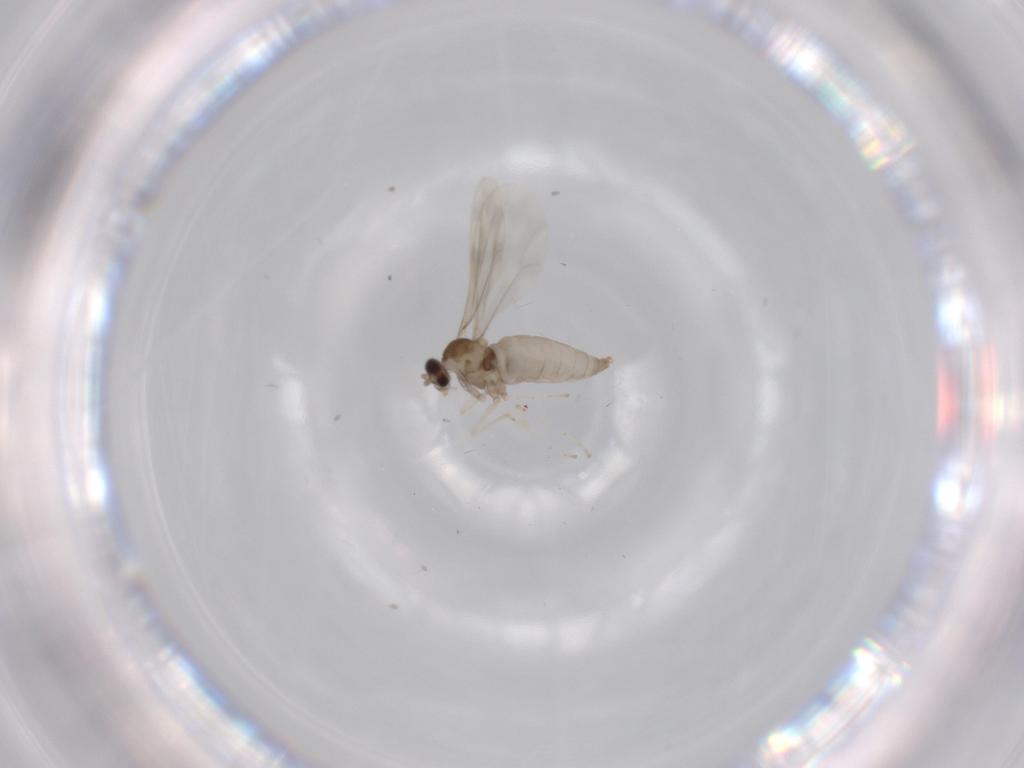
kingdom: Animalia
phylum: Arthropoda
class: Insecta
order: Diptera
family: Cecidomyiidae
